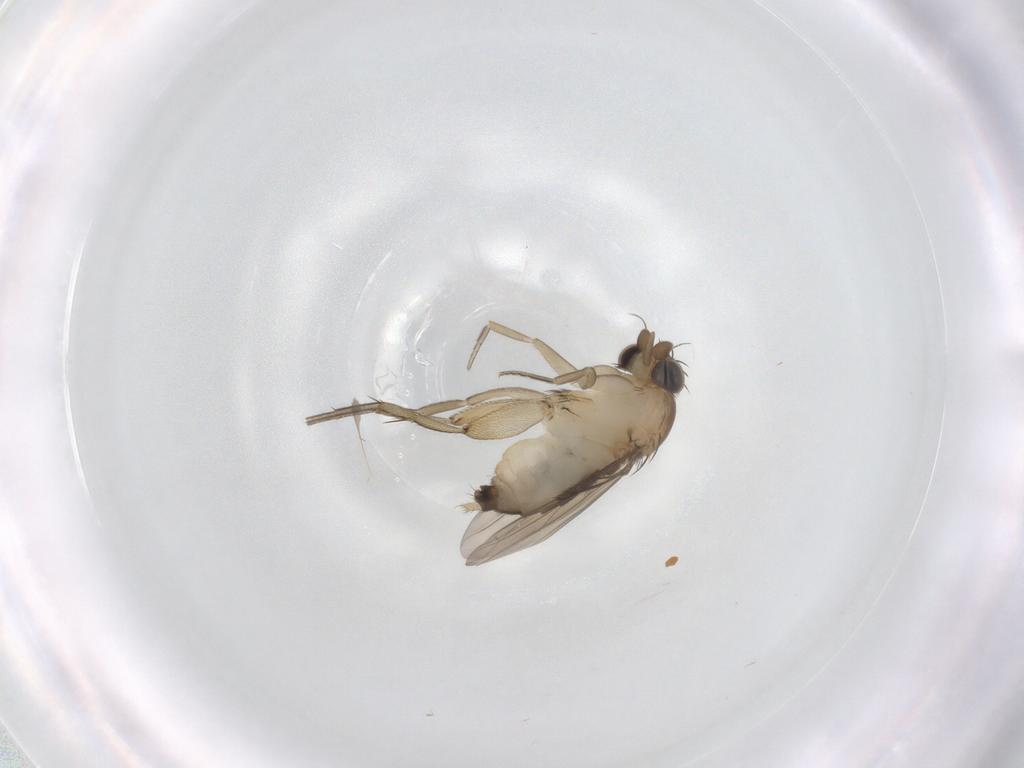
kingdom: Animalia
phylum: Arthropoda
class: Insecta
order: Diptera
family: Phoridae
